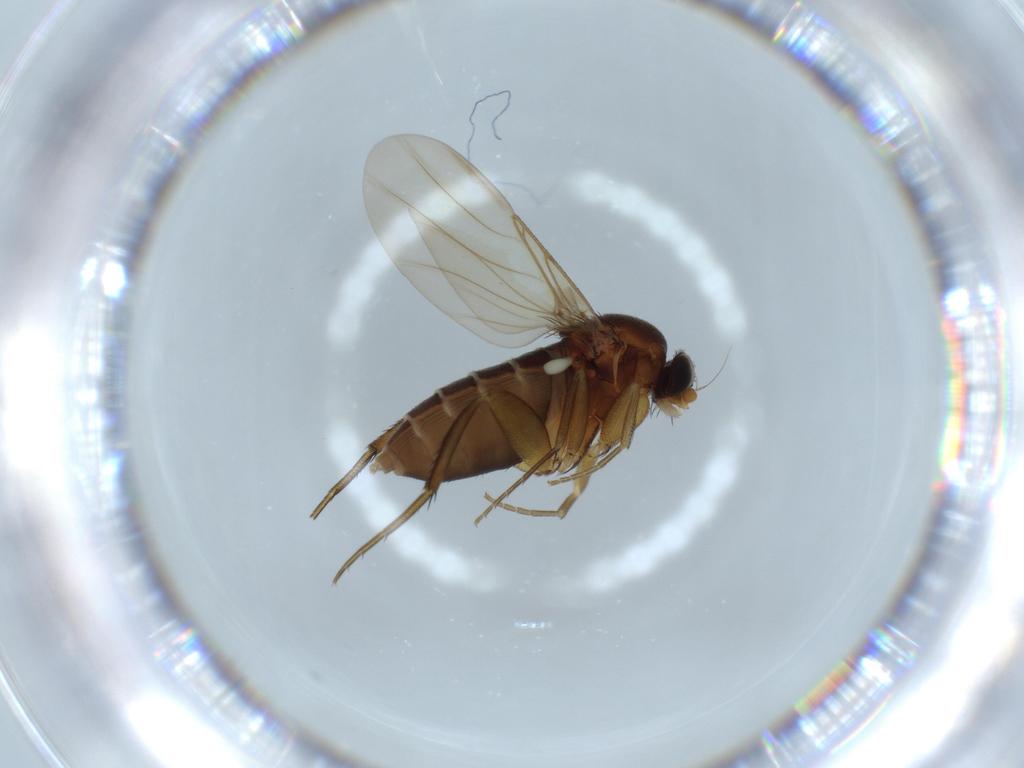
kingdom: Animalia
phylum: Arthropoda
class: Insecta
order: Diptera
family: Phoridae
